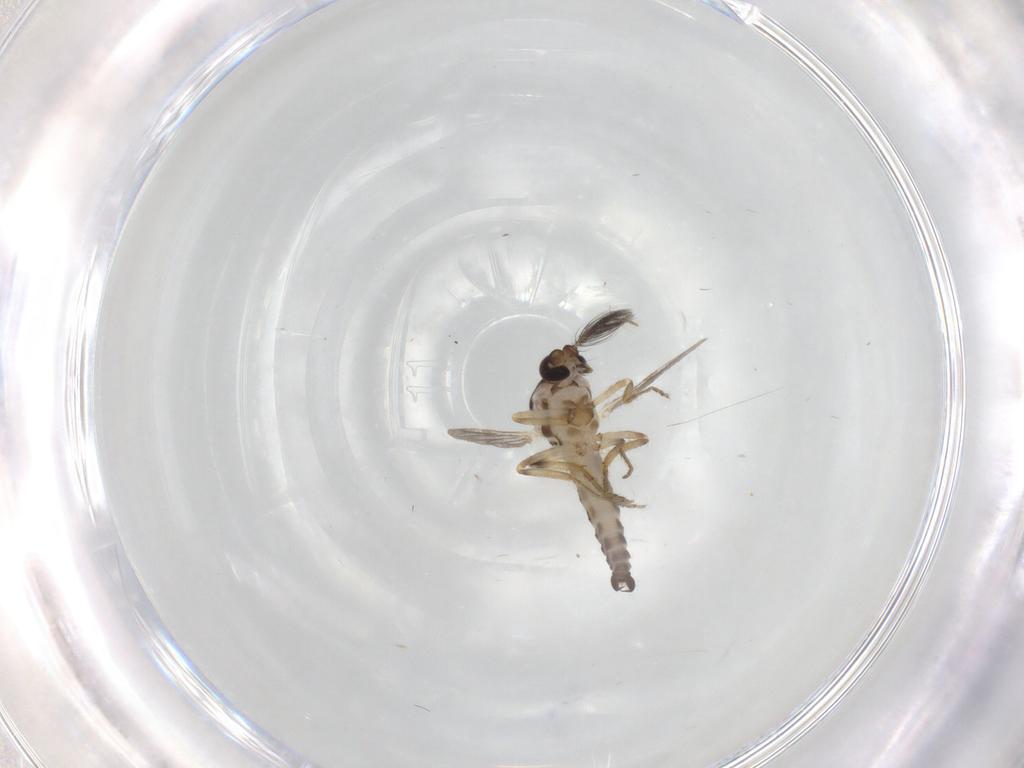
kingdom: Animalia
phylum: Arthropoda
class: Insecta
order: Diptera
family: Ceratopogonidae
